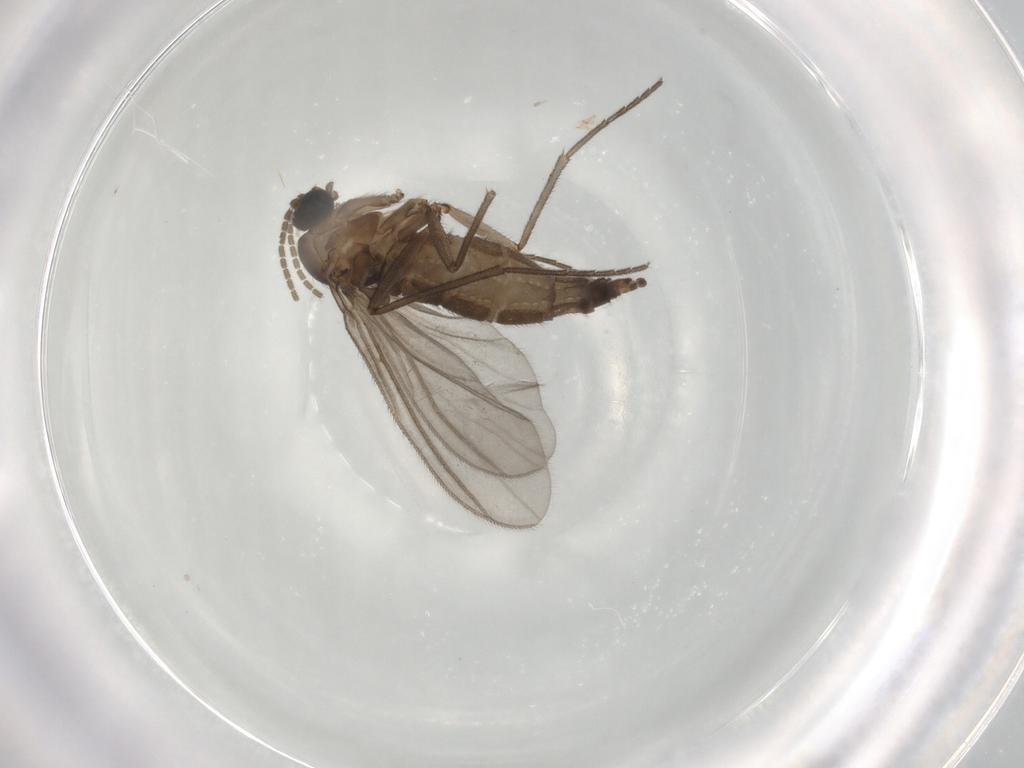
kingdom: Animalia
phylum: Arthropoda
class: Insecta
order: Diptera
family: Sciaridae
